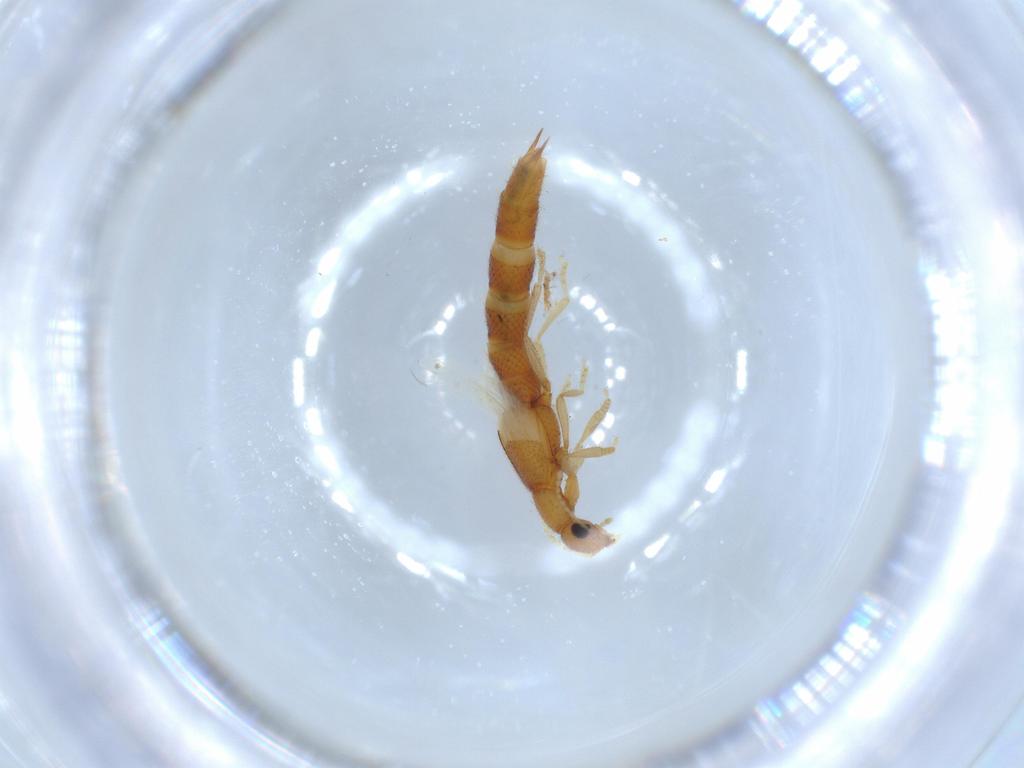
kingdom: Animalia
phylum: Arthropoda
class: Insecta
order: Coleoptera
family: Staphylinidae
